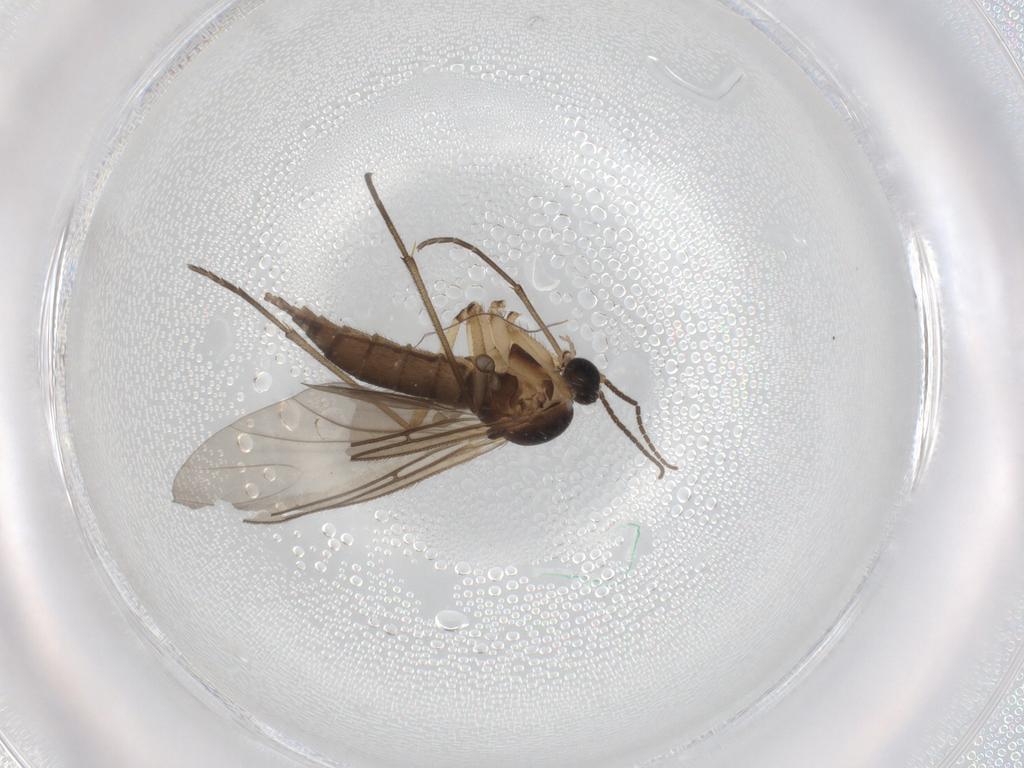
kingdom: Animalia
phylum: Arthropoda
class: Insecta
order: Diptera
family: Sciaridae
